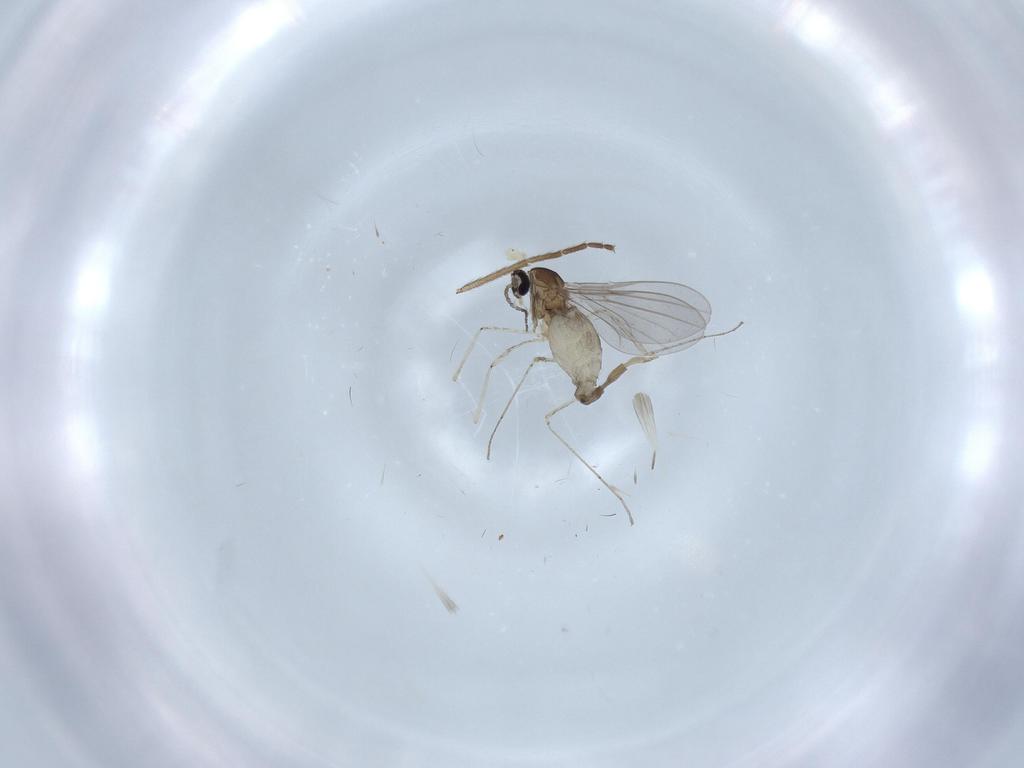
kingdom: Animalia
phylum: Arthropoda
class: Insecta
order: Diptera
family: Cecidomyiidae
